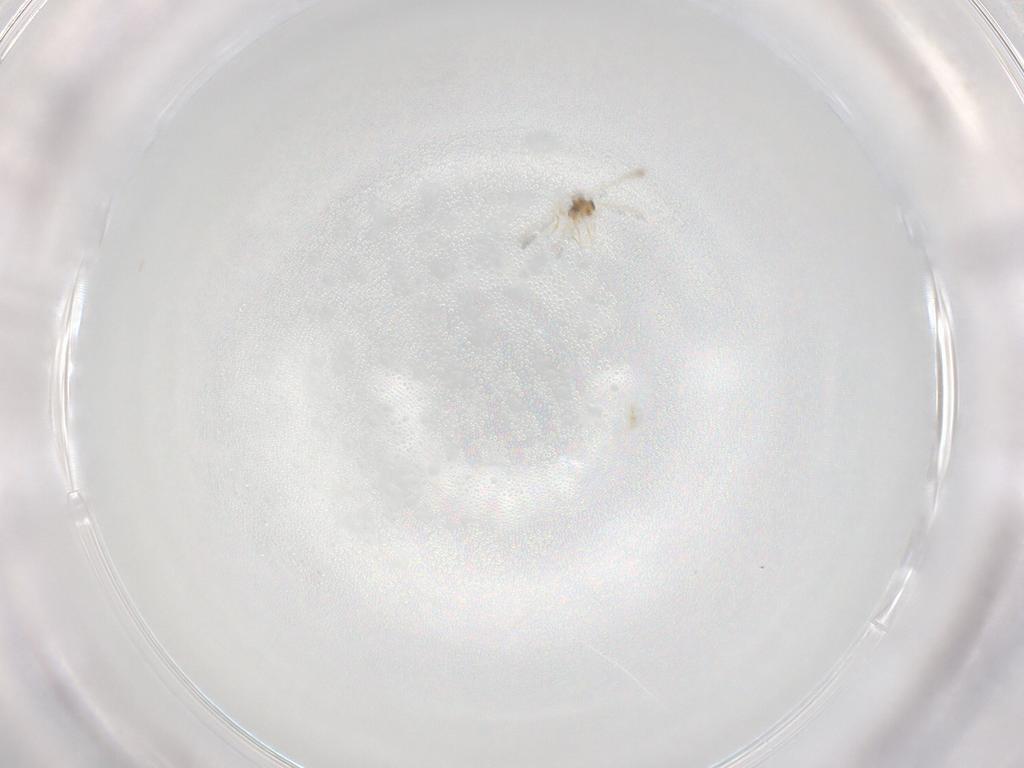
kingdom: Animalia
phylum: Arthropoda
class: Insecta
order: Hymenoptera
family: Mymaridae
